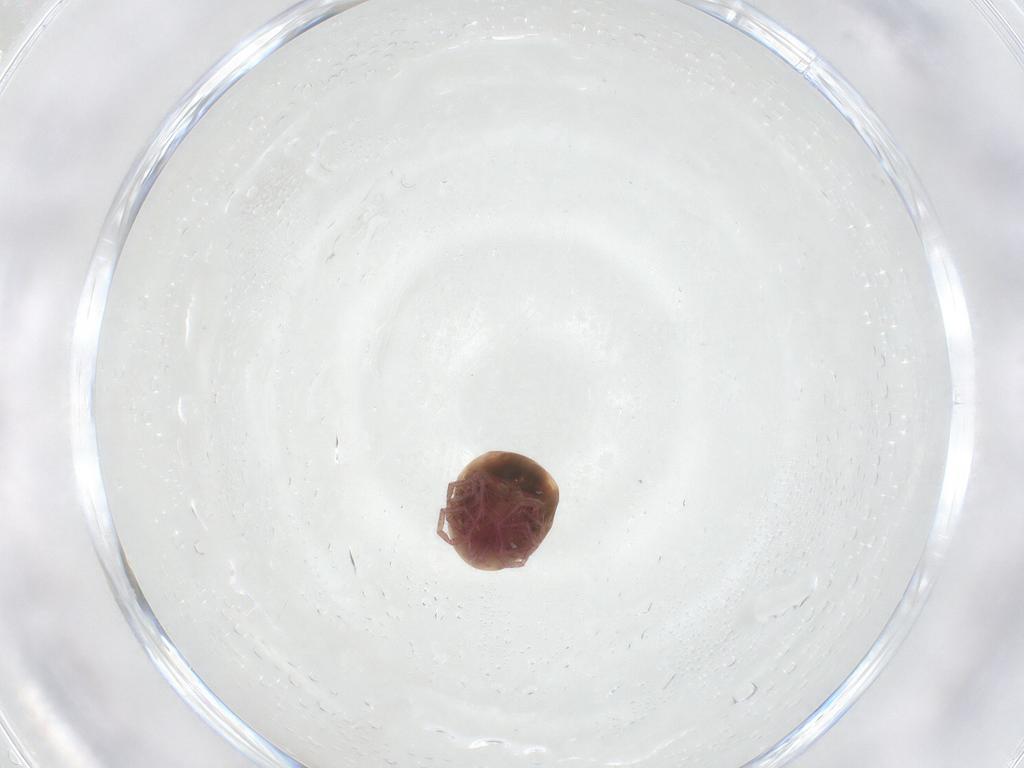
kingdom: Animalia
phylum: Arthropoda
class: Arachnida
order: Trombidiformes
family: Pionidae
